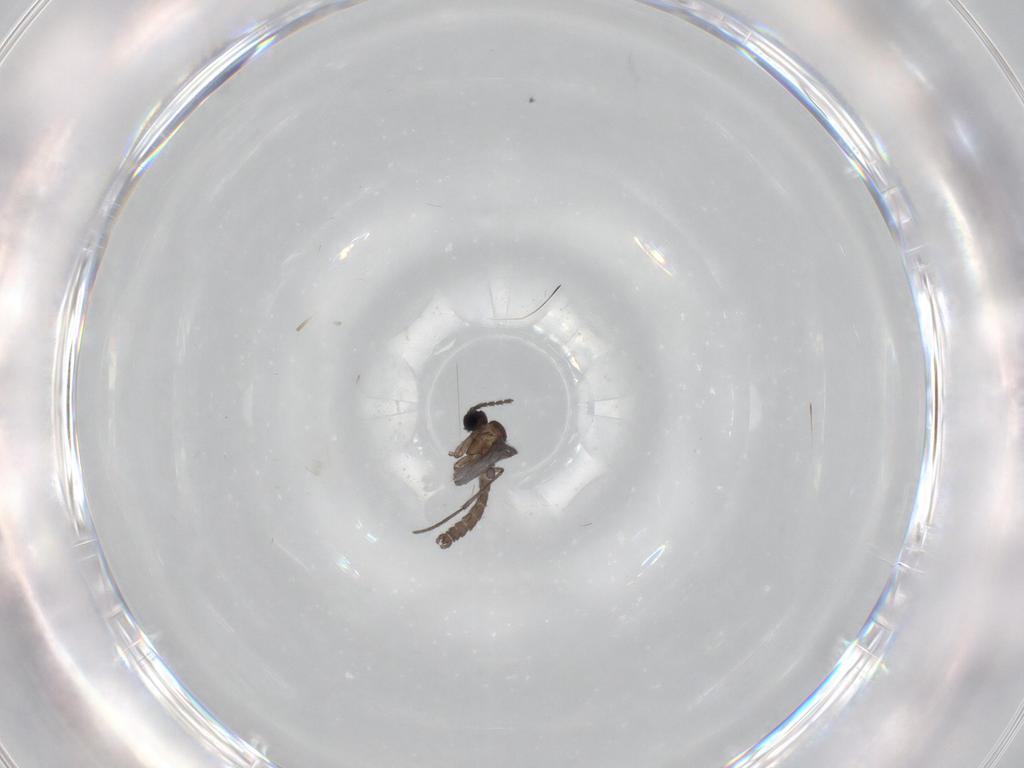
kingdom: Animalia
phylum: Arthropoda
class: Insecta
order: Diptera
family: Sciaridae
